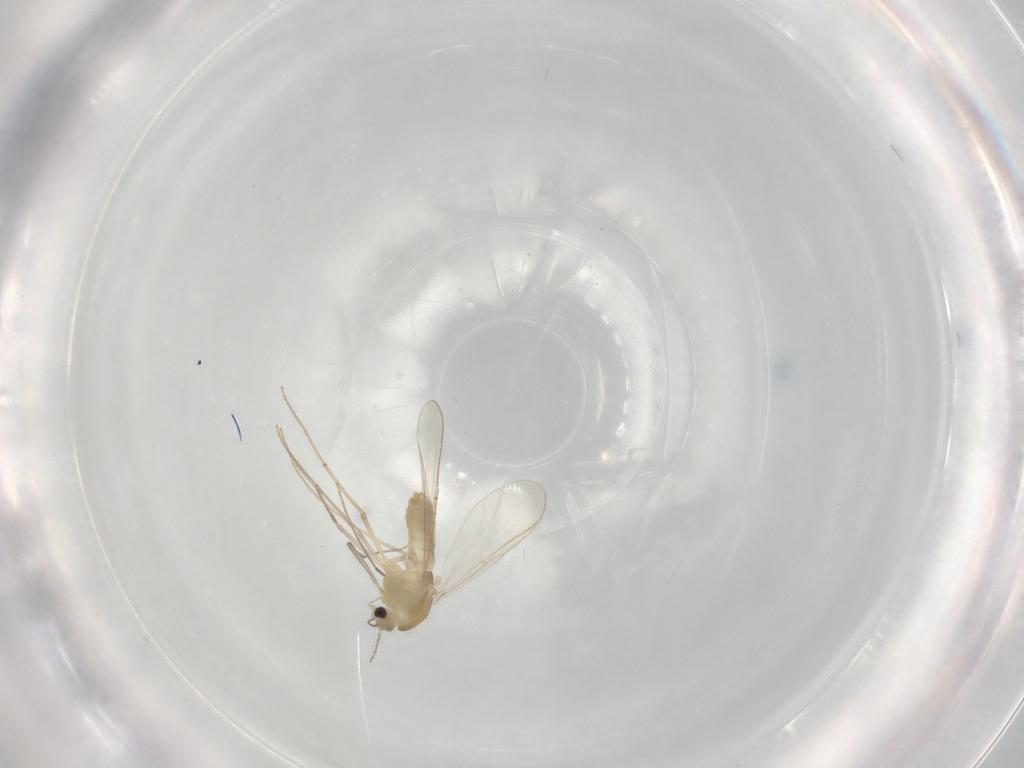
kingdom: Animalia
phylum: Arthropoda
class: Insecta
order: Diptera
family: Chironomidae
